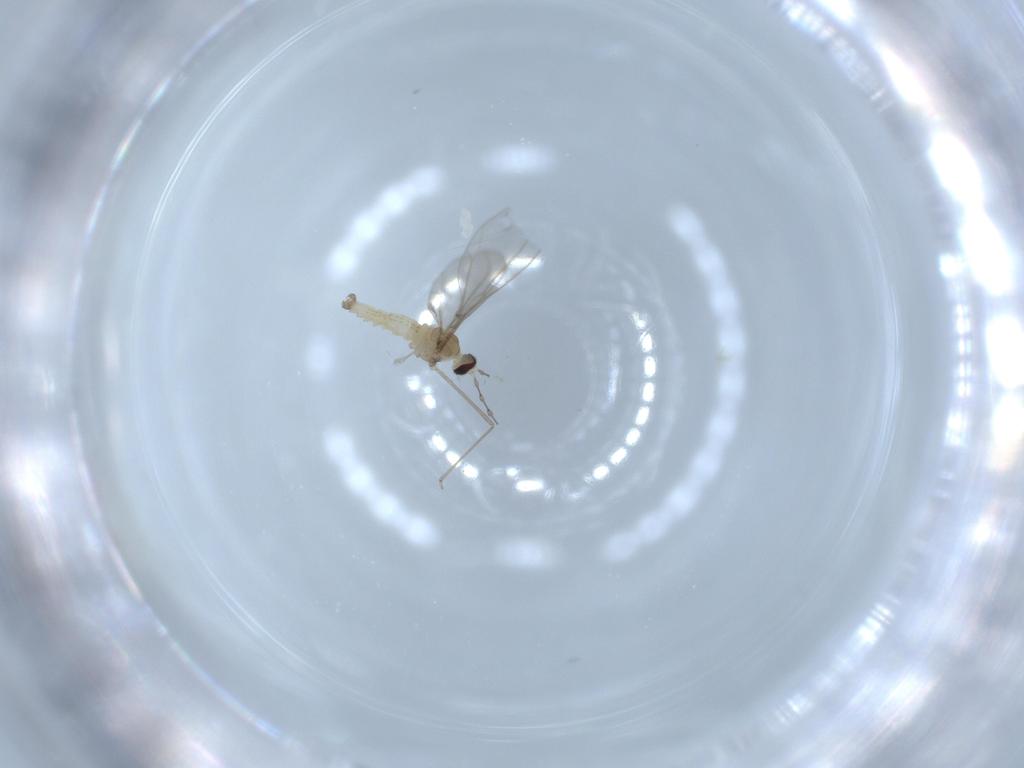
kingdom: Animalia
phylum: Arthropoda
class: Insecta
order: Diptera
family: Cecidomyiidae
